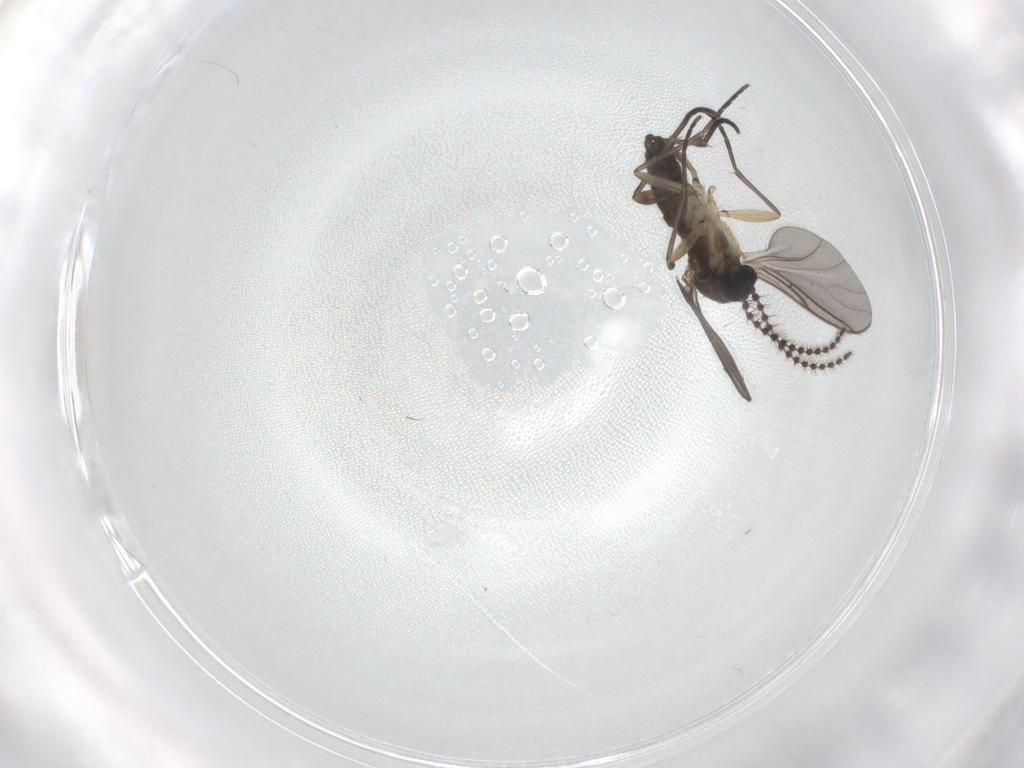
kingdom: Animalia
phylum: Arthropoda
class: Insecta
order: Diptera
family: Sciaridae
